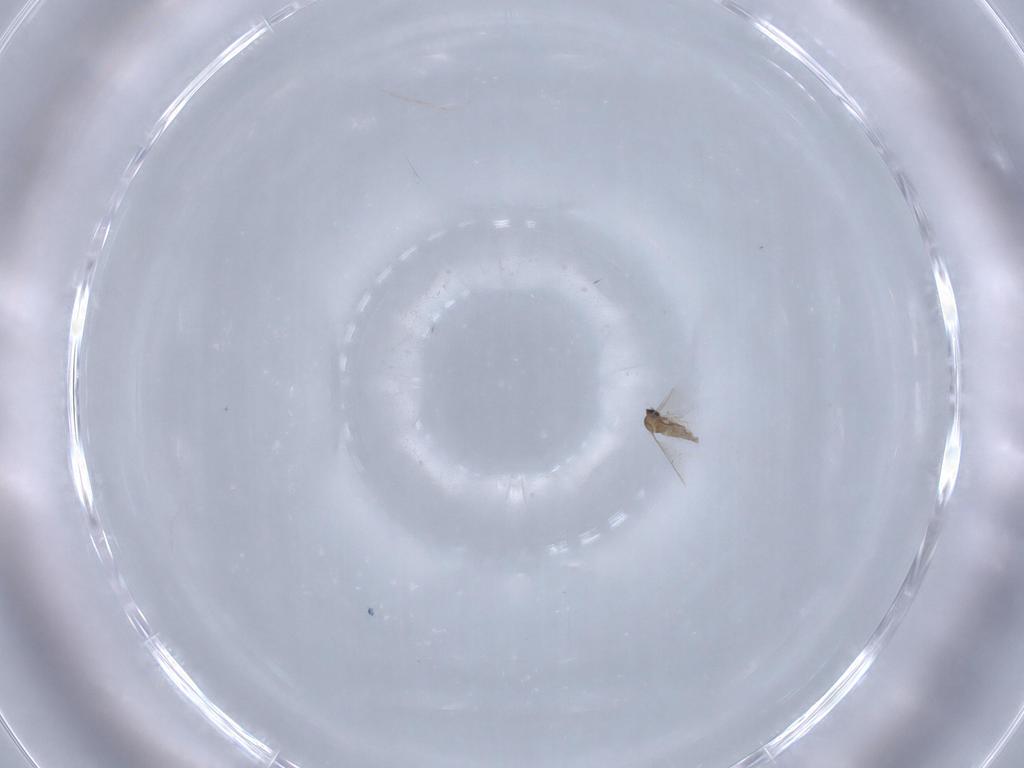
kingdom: Animalia
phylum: Arthropoda
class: Insecta
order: Diptera
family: Cecidomyiidae
